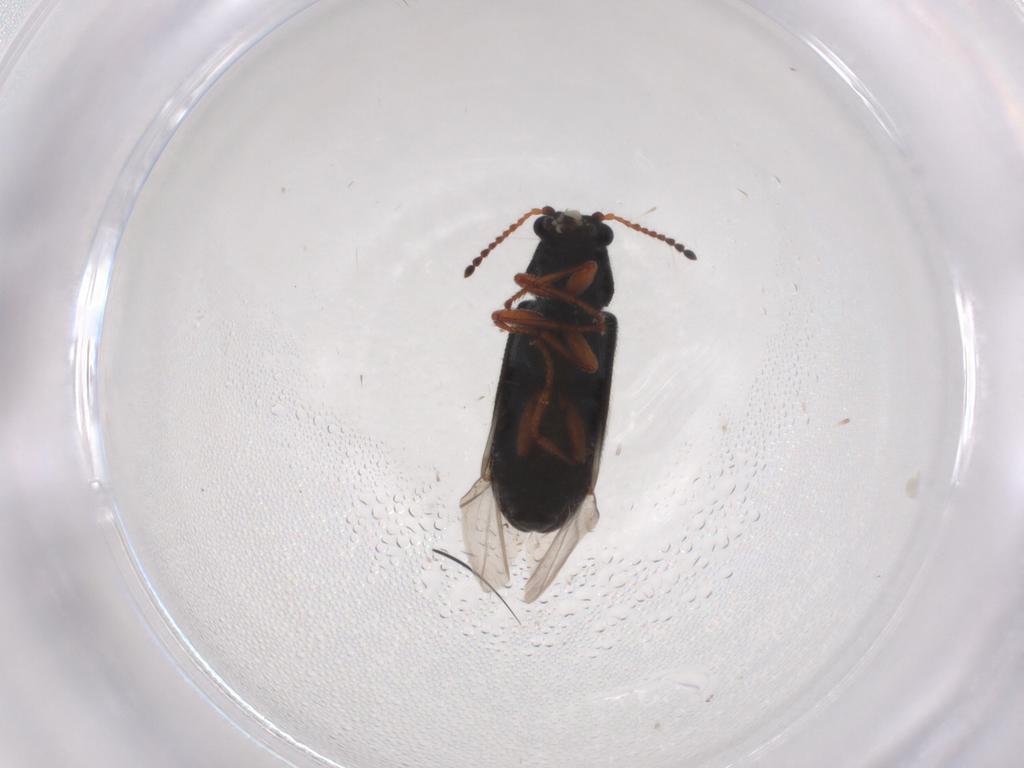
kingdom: Animalia
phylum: Arthropoda
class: Insecta
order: Coleoptera
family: Melyridae
